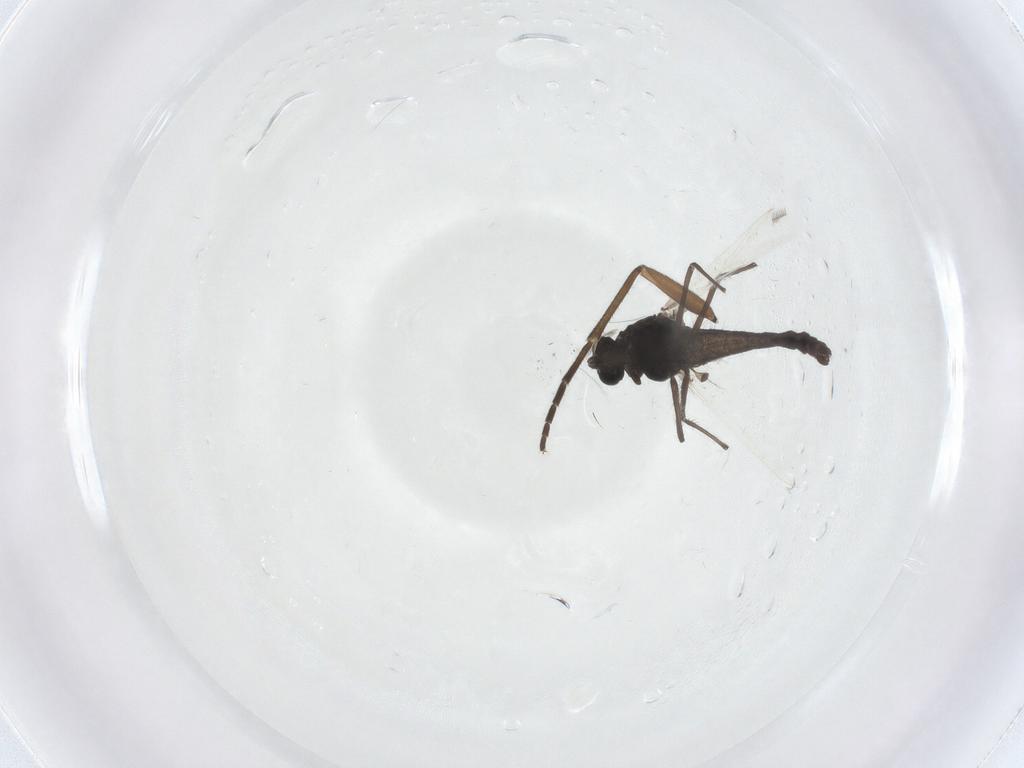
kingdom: Animalia
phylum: Arthropoda
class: Insecta
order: Diptera
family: Sciaridae
